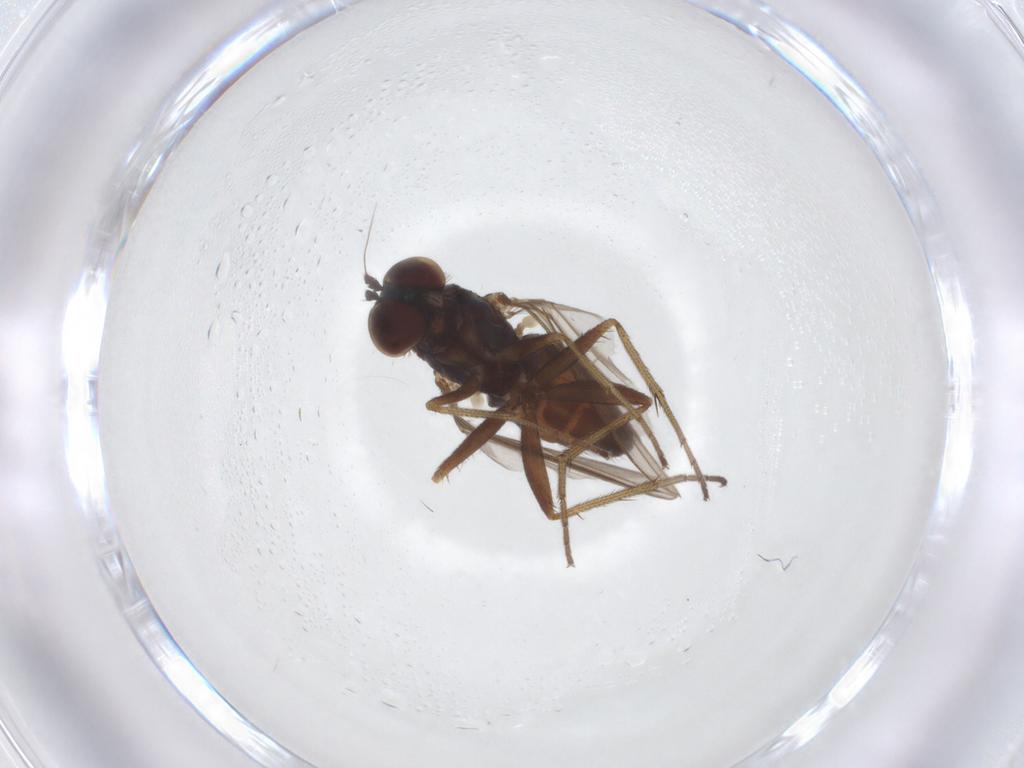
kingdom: Animalia
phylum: Arthropoda
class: Insecta
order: Diptera
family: Dolichopodidae
